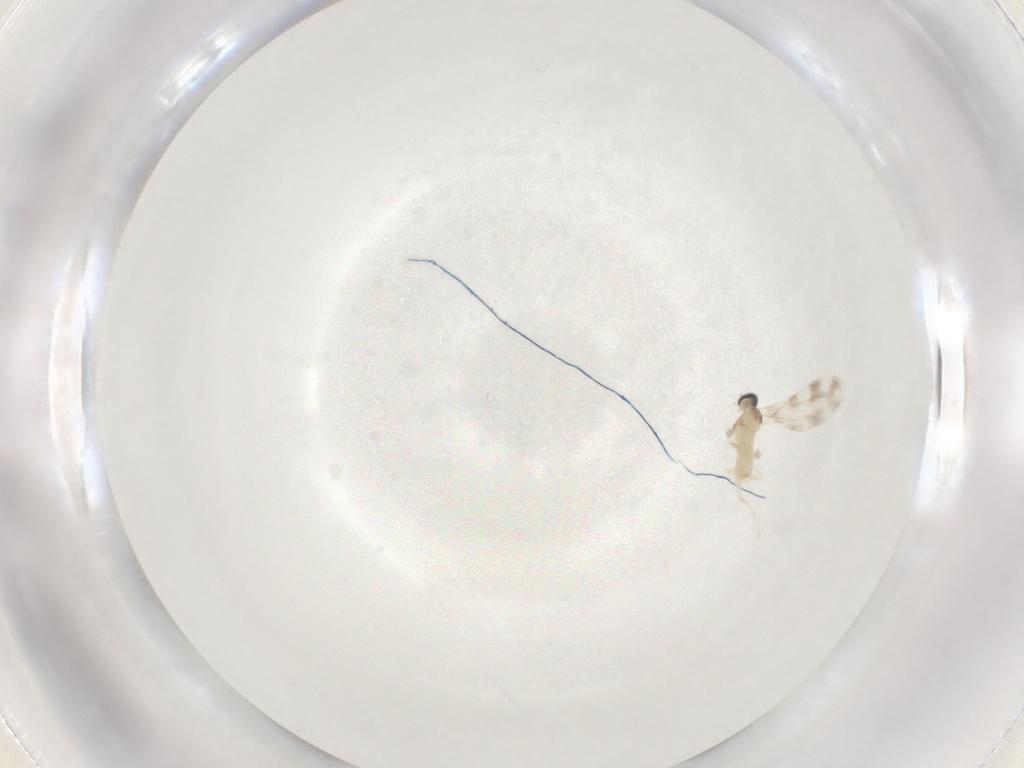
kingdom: Animalia
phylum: Arthropoda
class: Insecta
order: Diptera
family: Cecidomyiidae
